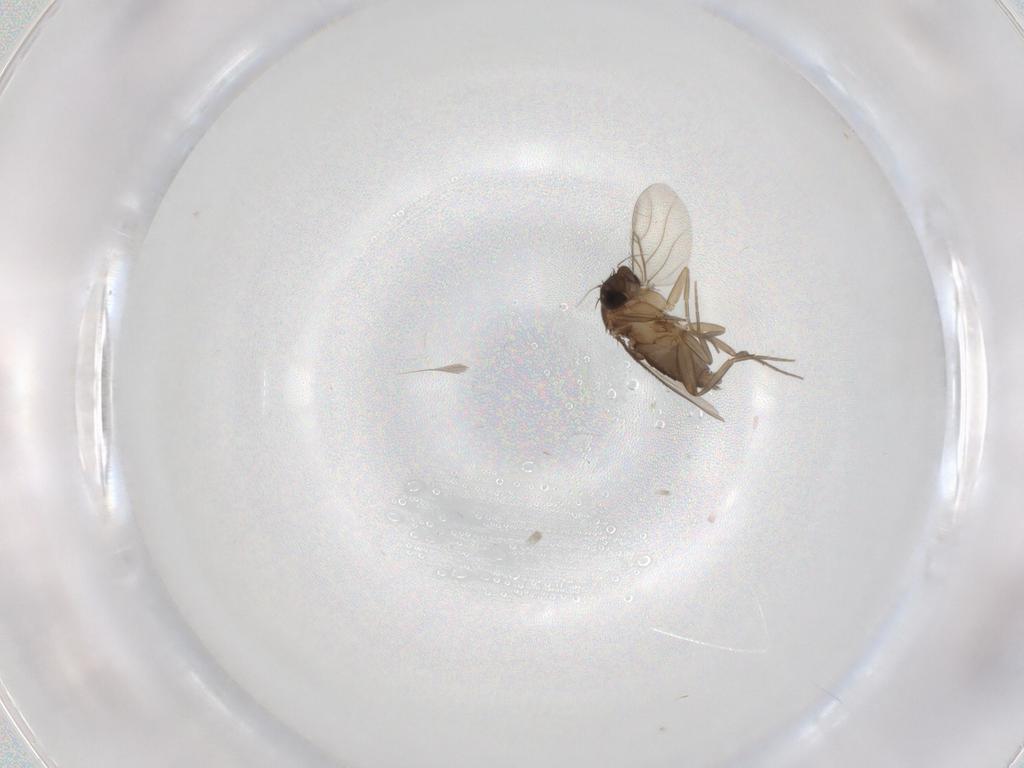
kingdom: Animalia
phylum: Arthropoda
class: Insecta
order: Diptera
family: Phoridae
